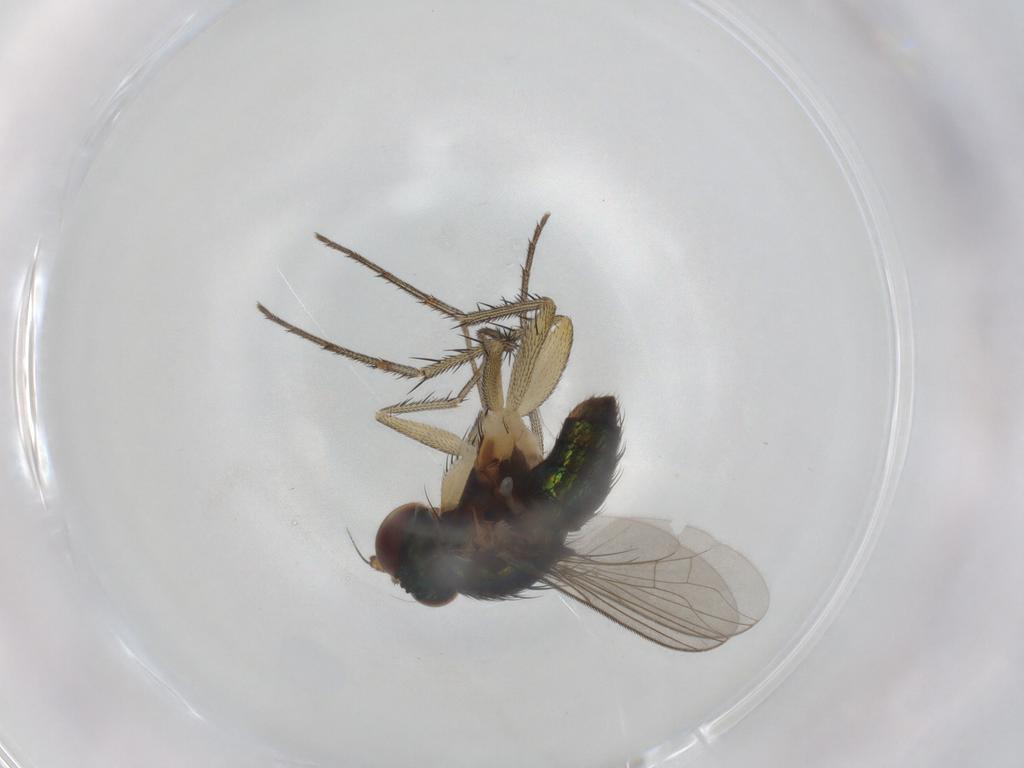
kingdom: Animalia
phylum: Arthropoda
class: Insecta
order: Diptera
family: Dolichopodidae
